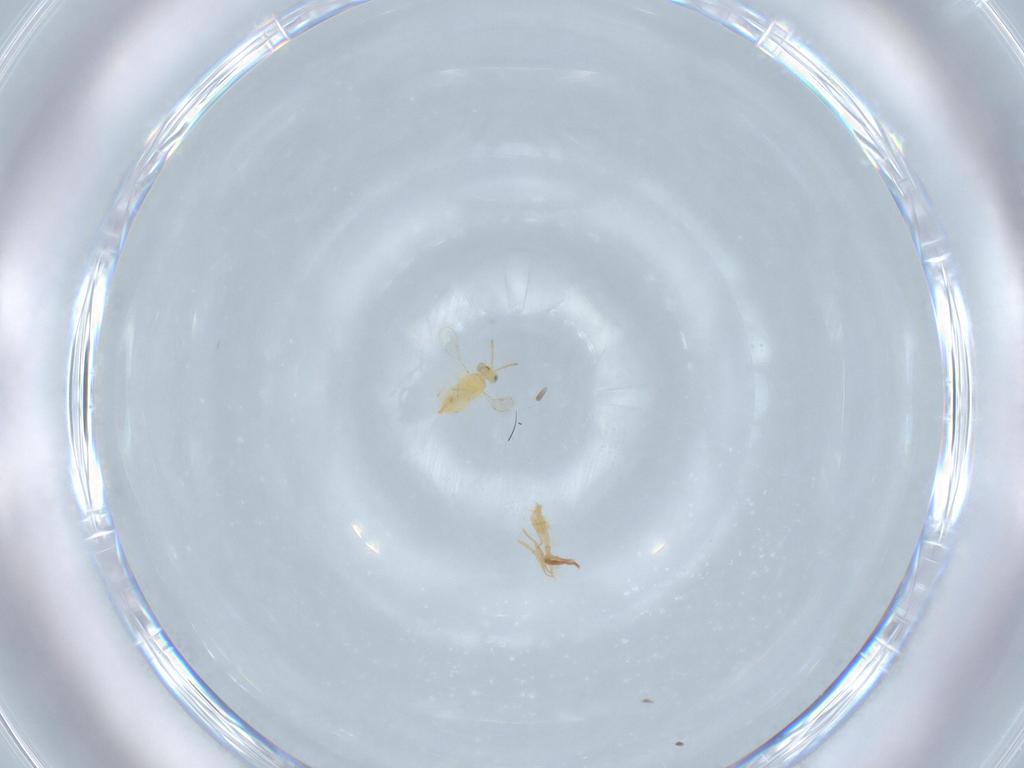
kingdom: Animalia
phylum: Arthropoda
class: Insecta
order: Hymenoptera
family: Aphelinidae
